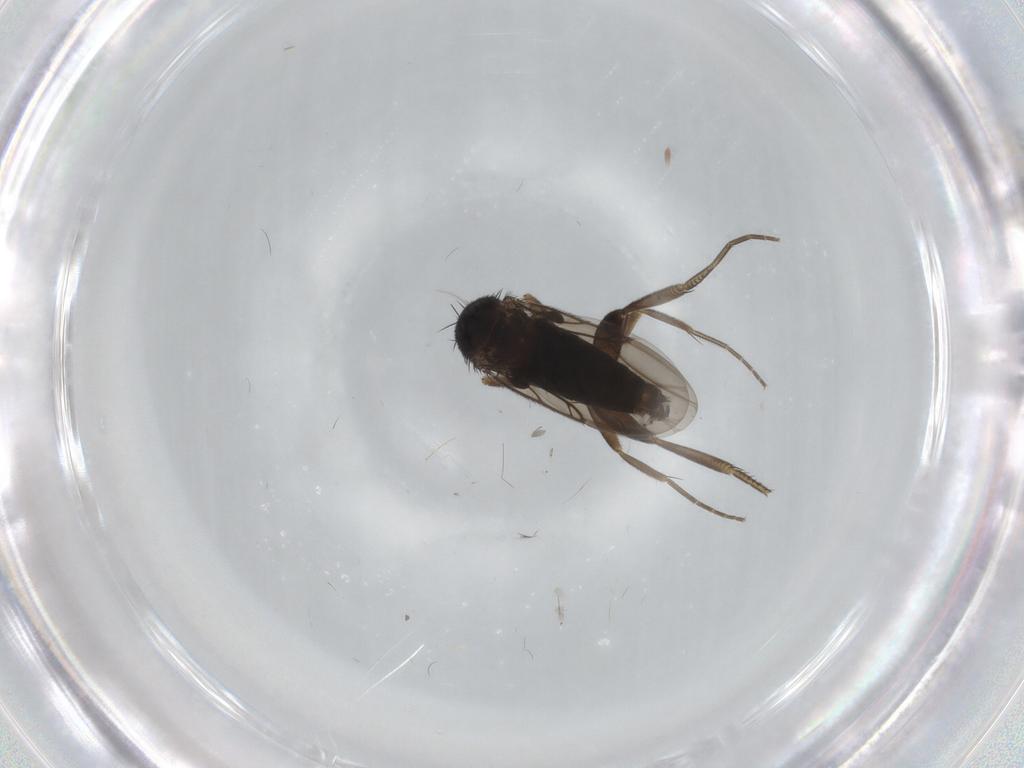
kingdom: Animalia
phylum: Arthropoda
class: Insecta
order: Diptera
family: Phoridae
